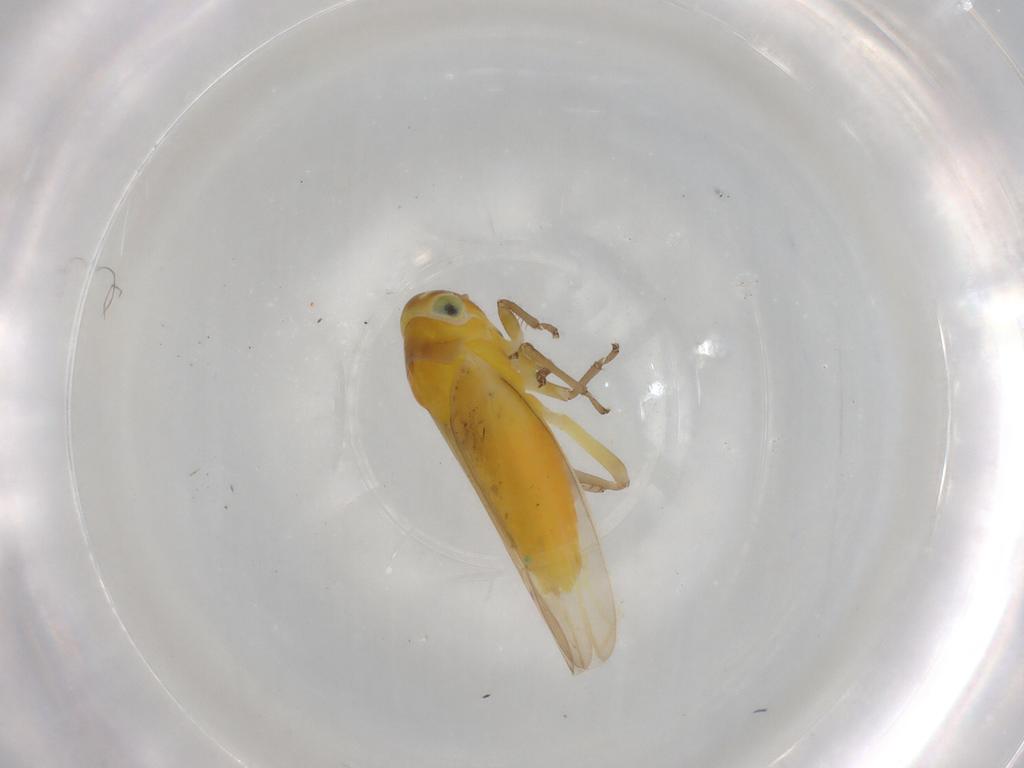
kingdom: Animalia
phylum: Arthropoda
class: Insecta
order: Hemiptera
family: Cicadellidae
